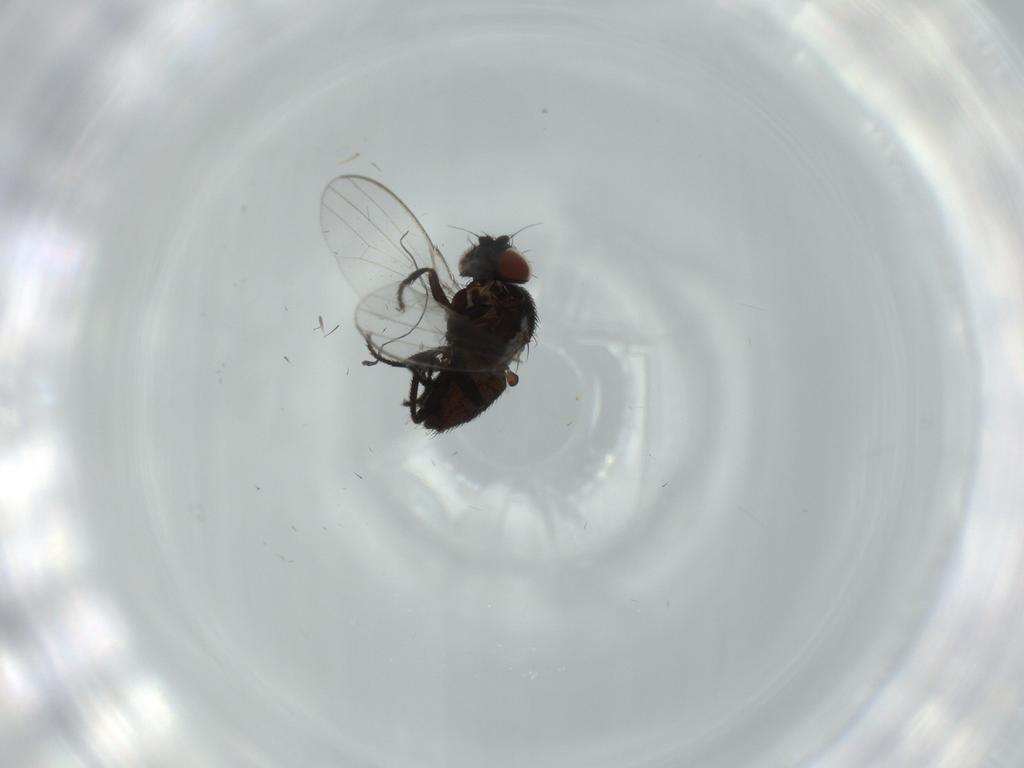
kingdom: Animalia
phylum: Arthropoda
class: Insecta
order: Diptera
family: Milichiidae
